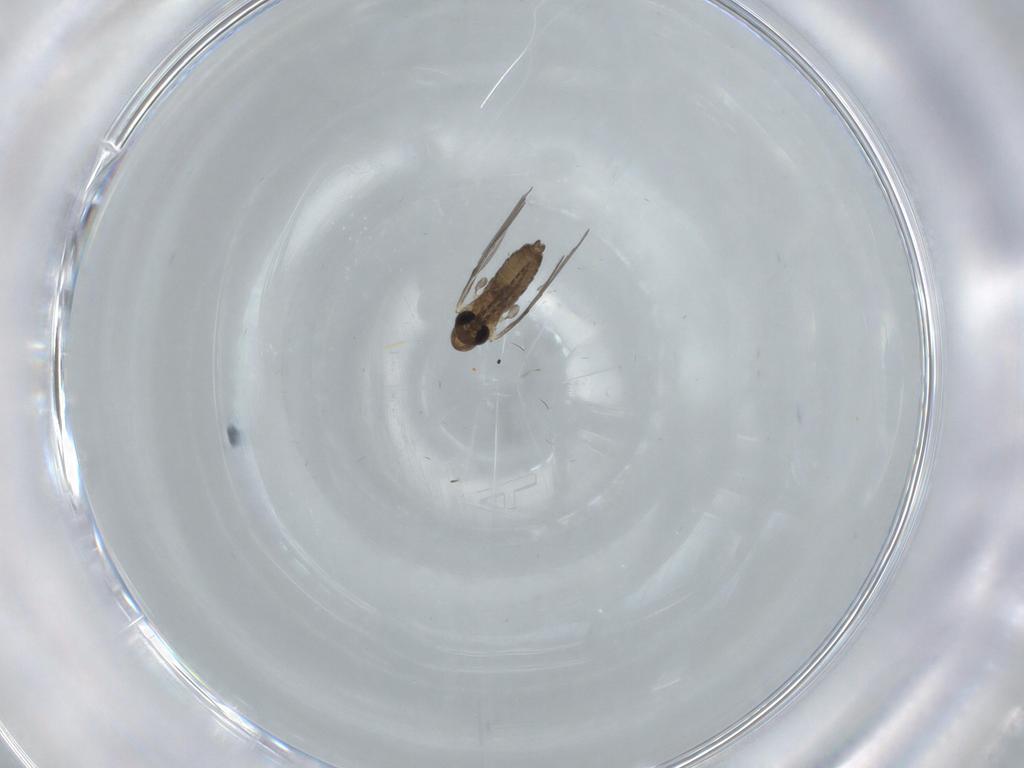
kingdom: Animalia
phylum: Arthropoda
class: Insecta
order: Diptera
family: Psychodidae
